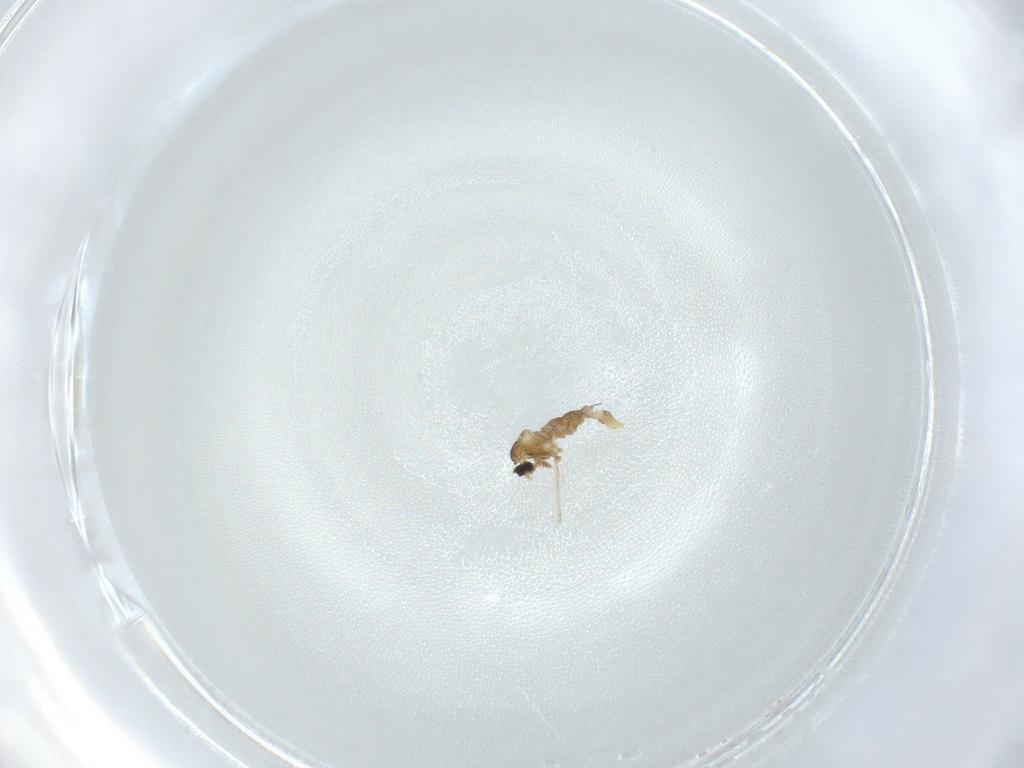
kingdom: Animalia
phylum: Arthropoda
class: Insecta
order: Diptera
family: Cecidomyiidae
